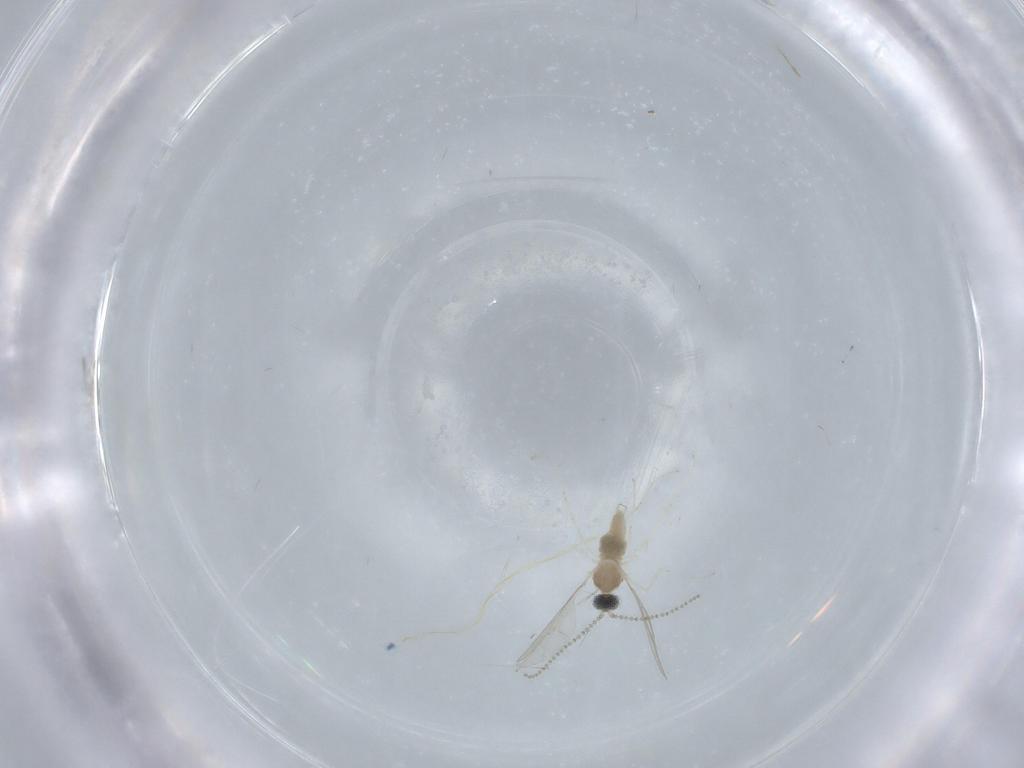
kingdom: Animalia
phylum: Arthropoda
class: Insecta
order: Diptera
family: Cecidomyiidae
